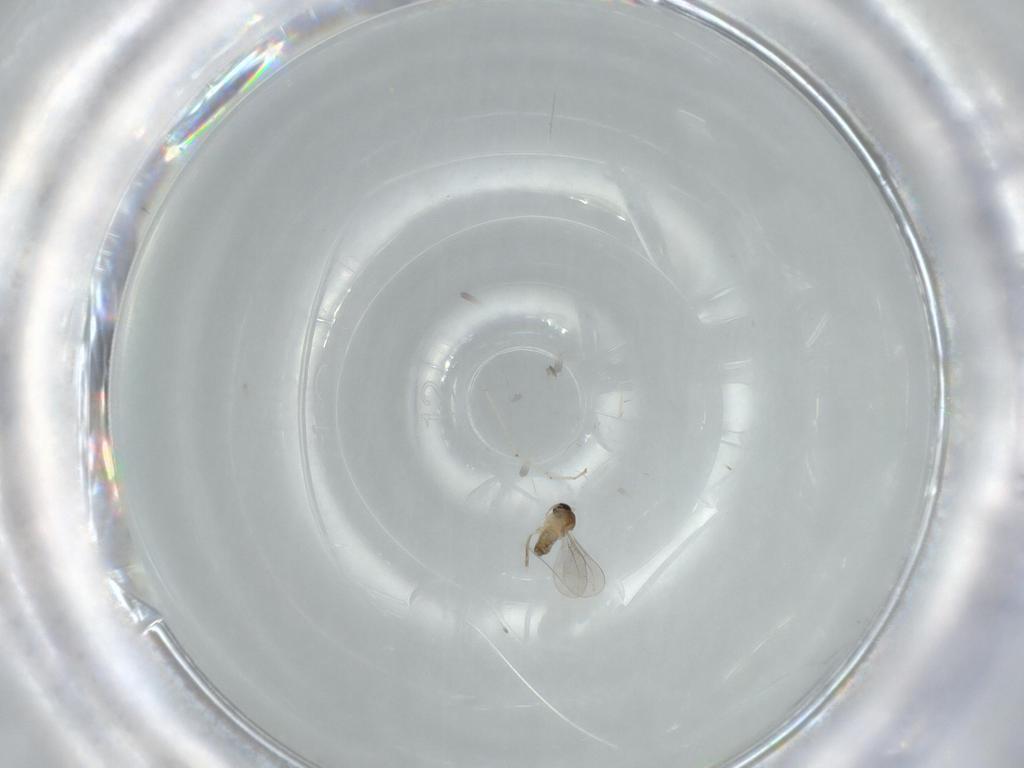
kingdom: Animalia
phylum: Arthropoda
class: Insecta
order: Diptera
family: Cecidomyiidae
